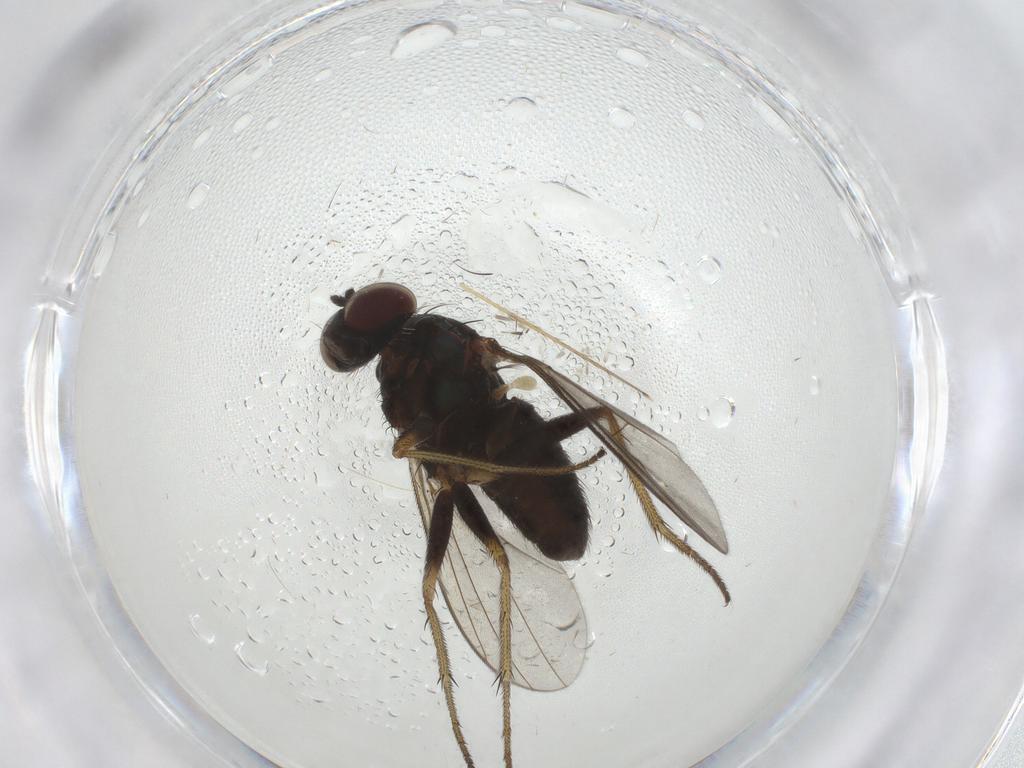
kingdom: Animalia
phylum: Arthropoda
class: Insecta
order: Diptera
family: Dolichopodidae
